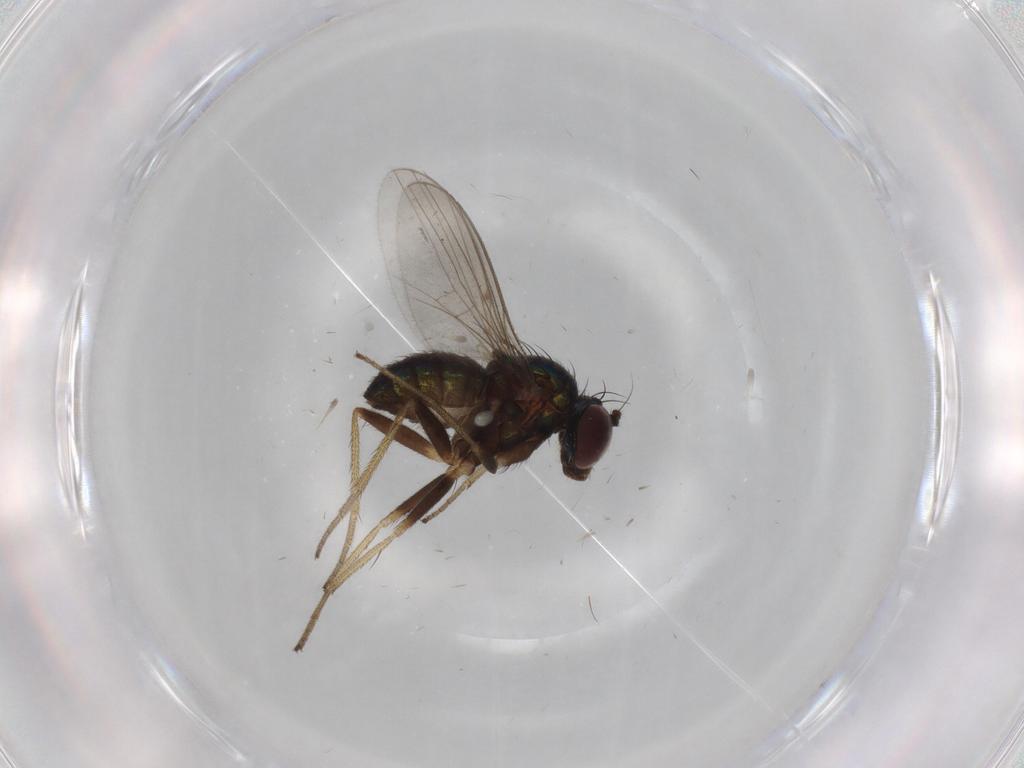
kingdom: Animalia
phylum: Arthropoda
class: Insecta
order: Diptera
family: Dolichopodidae
